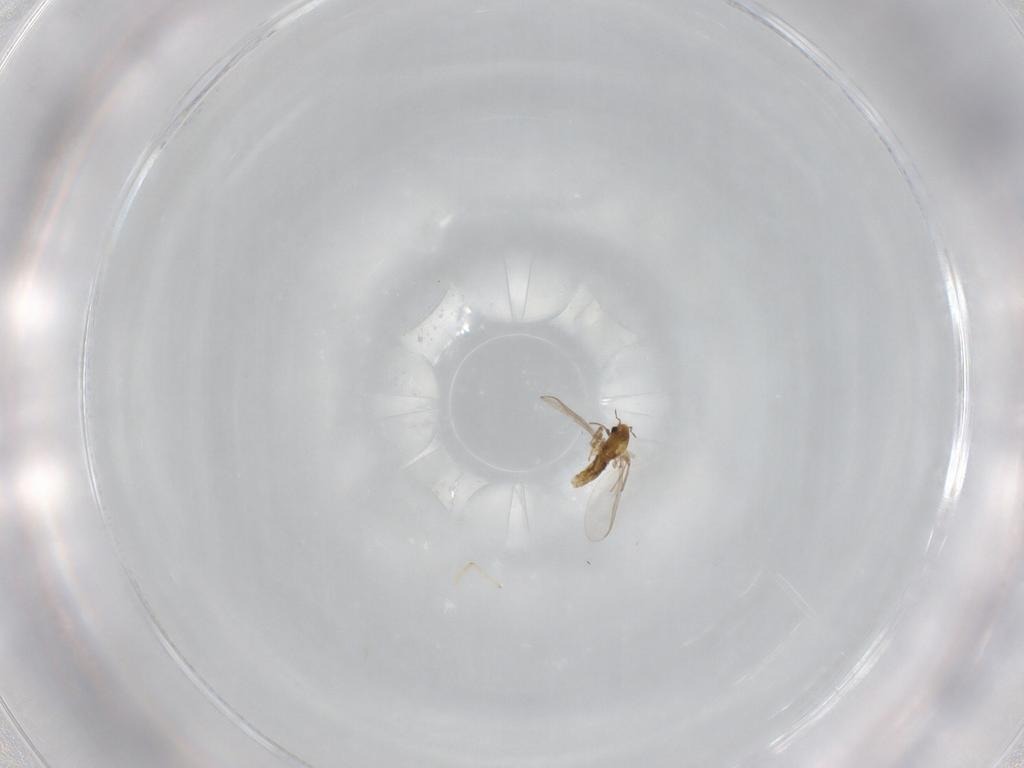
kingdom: Animalia
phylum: Arthropoda
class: Insecta
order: Diptera
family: Chironomidae
